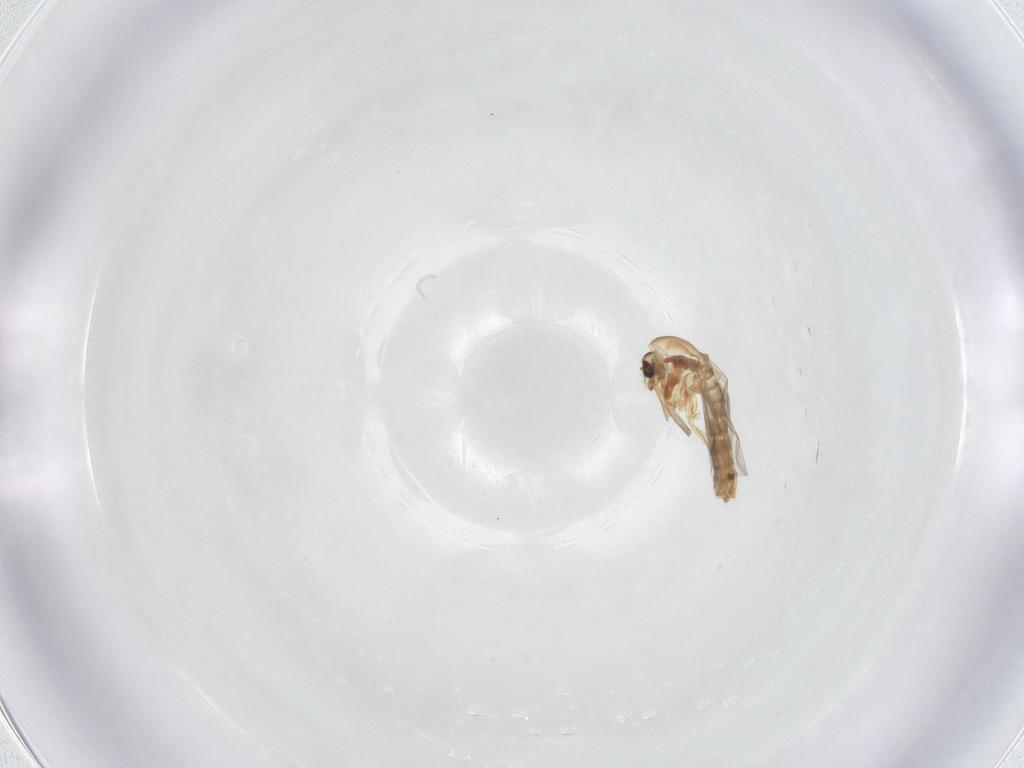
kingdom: Animalia
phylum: Arthropoda
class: Insecta
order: Diptera
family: Chironomidae
